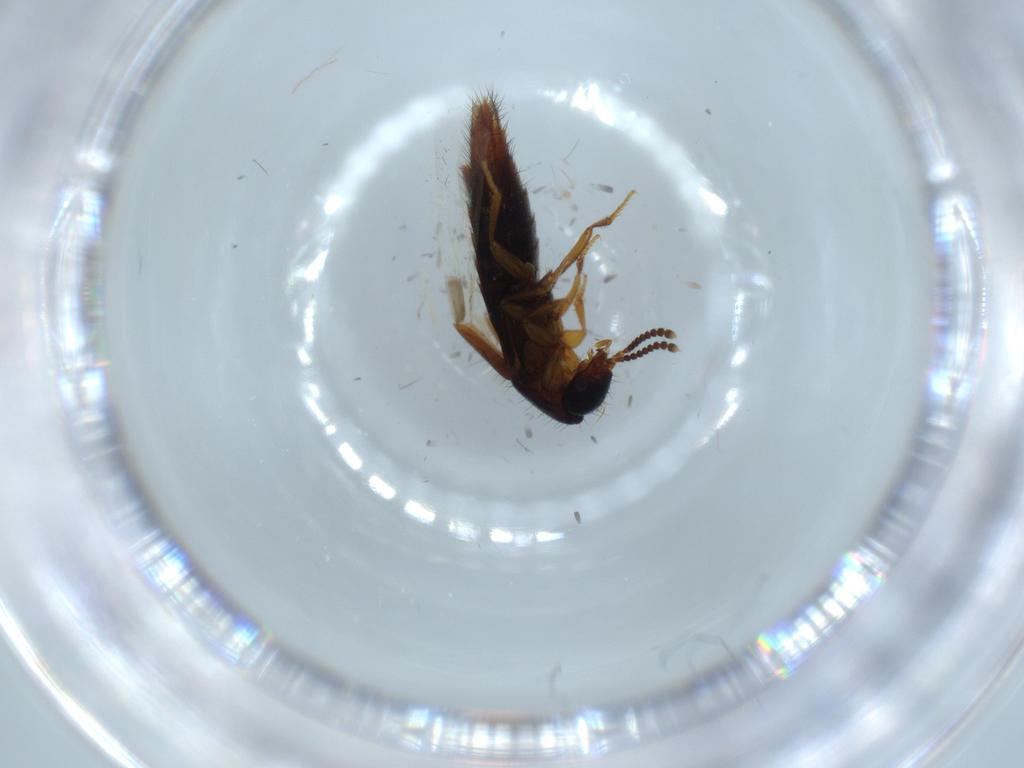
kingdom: Animalia
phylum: Arthropoda
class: Insecta
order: Coleoptera
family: Staphylinidae
